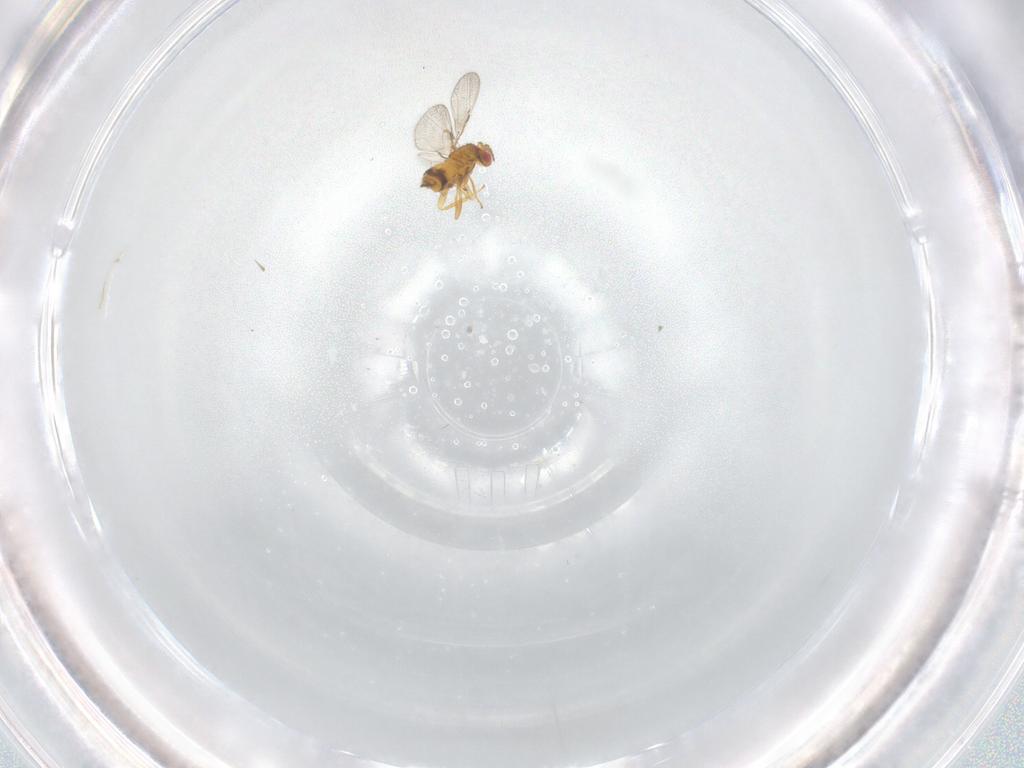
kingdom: Animalia
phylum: Arthropoda
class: Insecta
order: Hymenoptera
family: Trichogrammatidae
